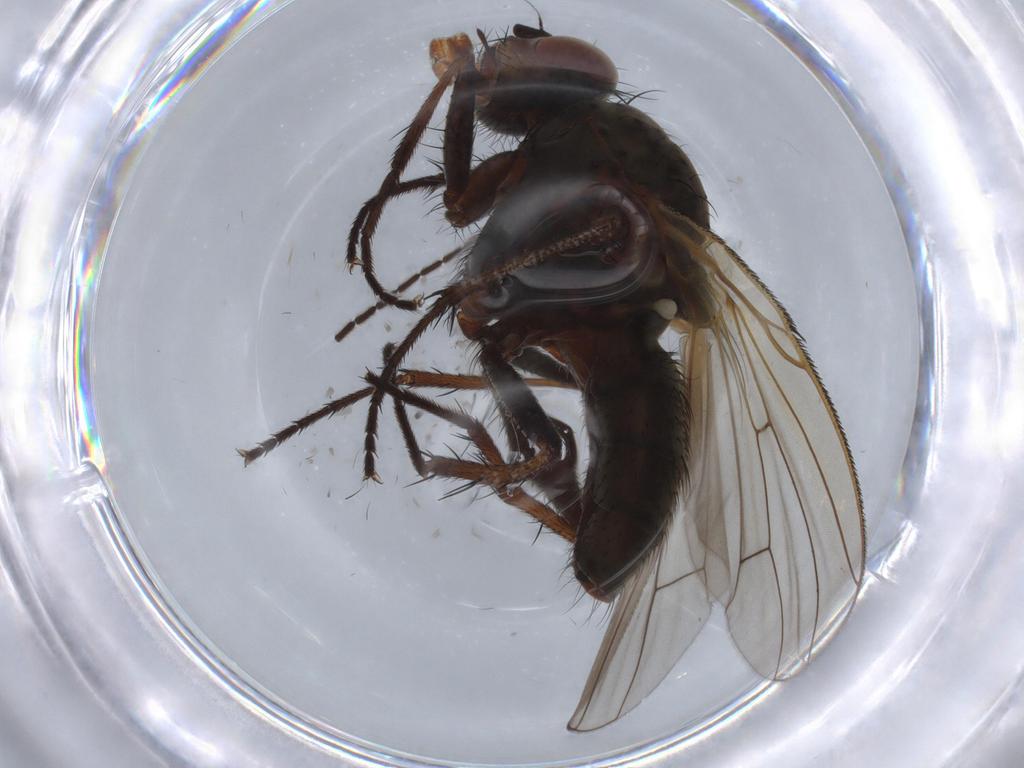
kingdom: Animalia
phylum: Arthropoda
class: Insecta
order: Diptera
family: Anthomyiidae
